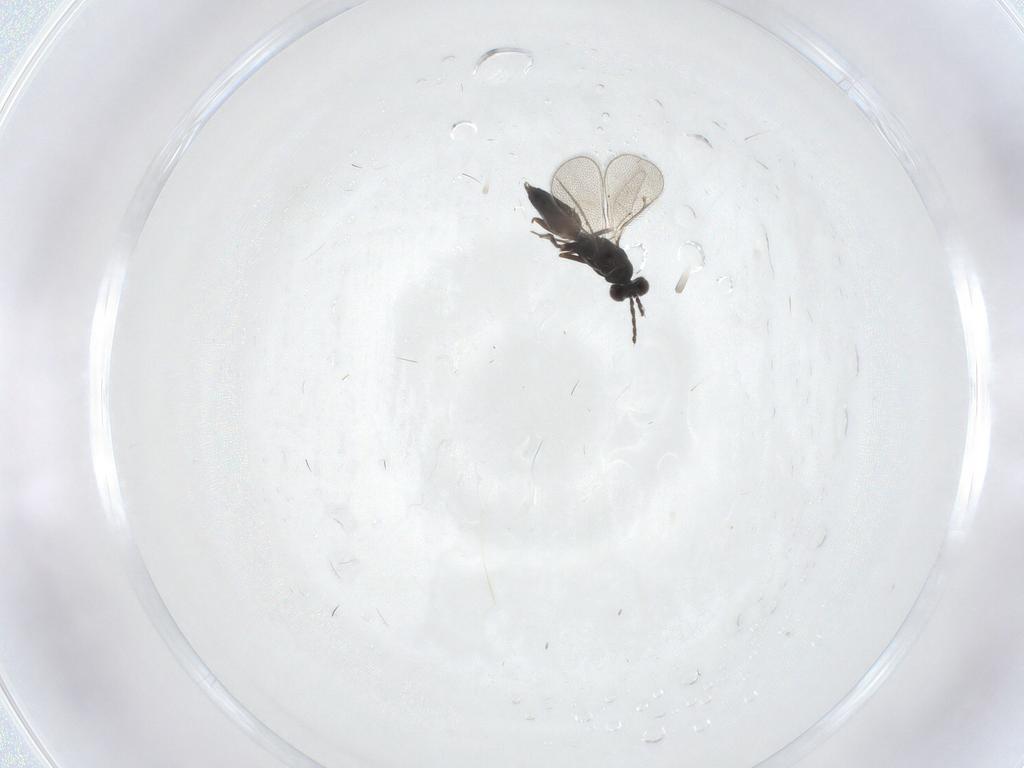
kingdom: Animalia
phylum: Arthropoda
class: Insecta
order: Hymenoptera
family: Eulophidae
